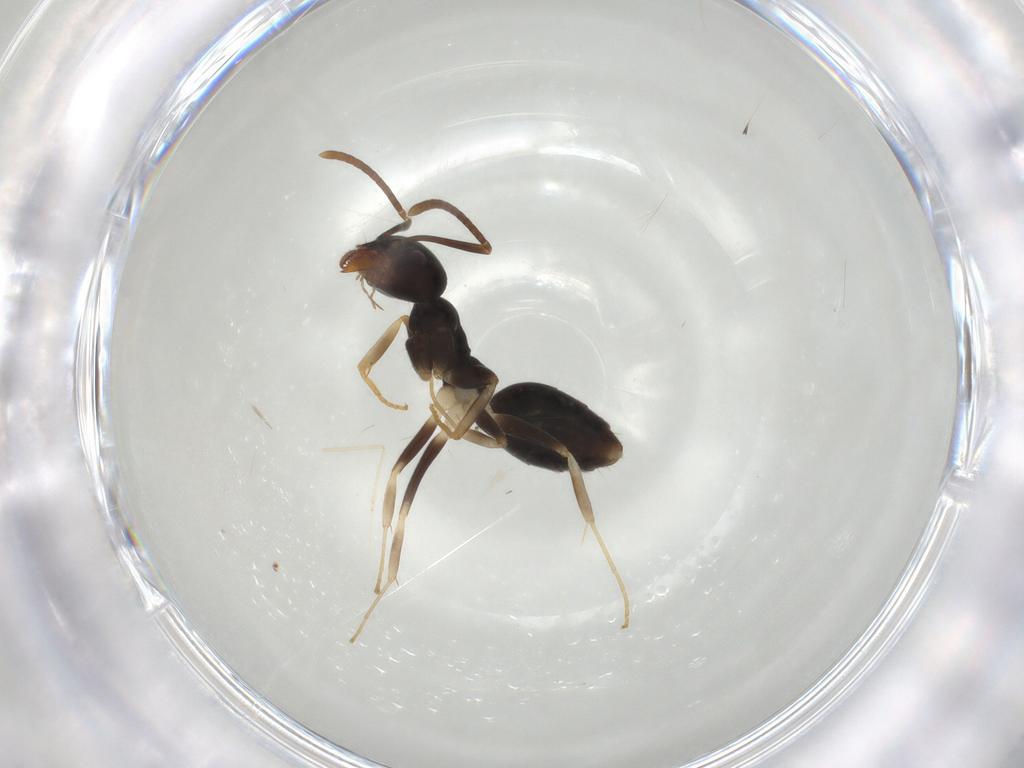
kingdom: Animalia
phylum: Arthropoda
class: Insecta
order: Hymenoptera
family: Formicidae
